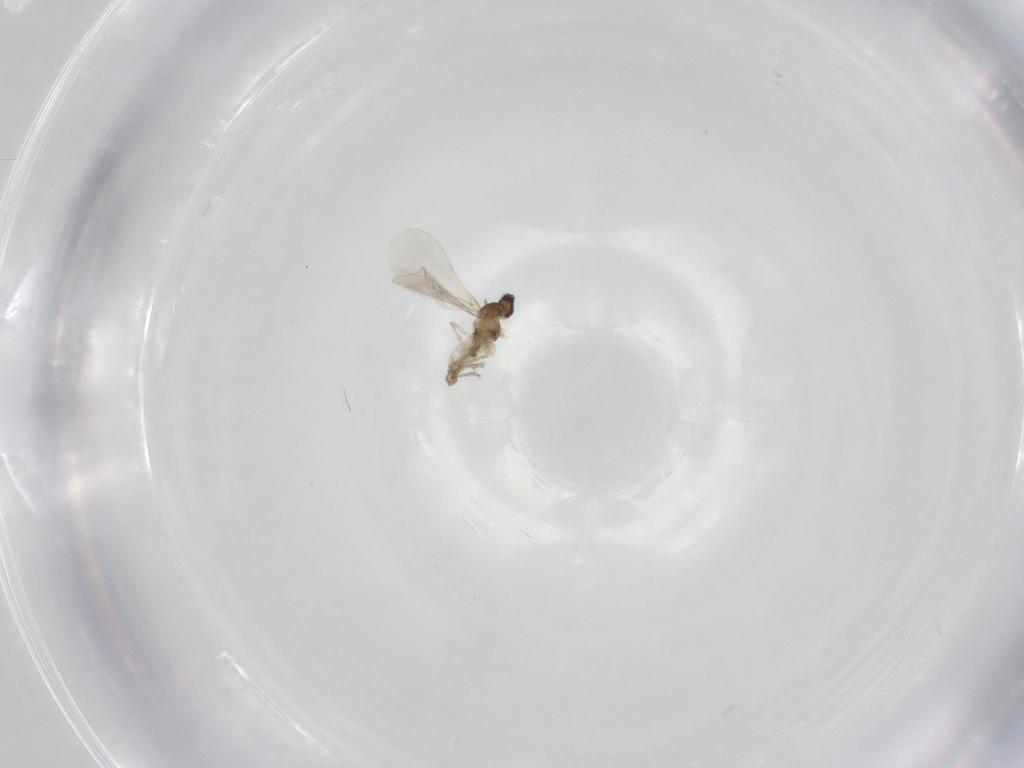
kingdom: Animalia
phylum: Arthropoda
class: Insecta
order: Diptera
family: Cecidomyiidae
